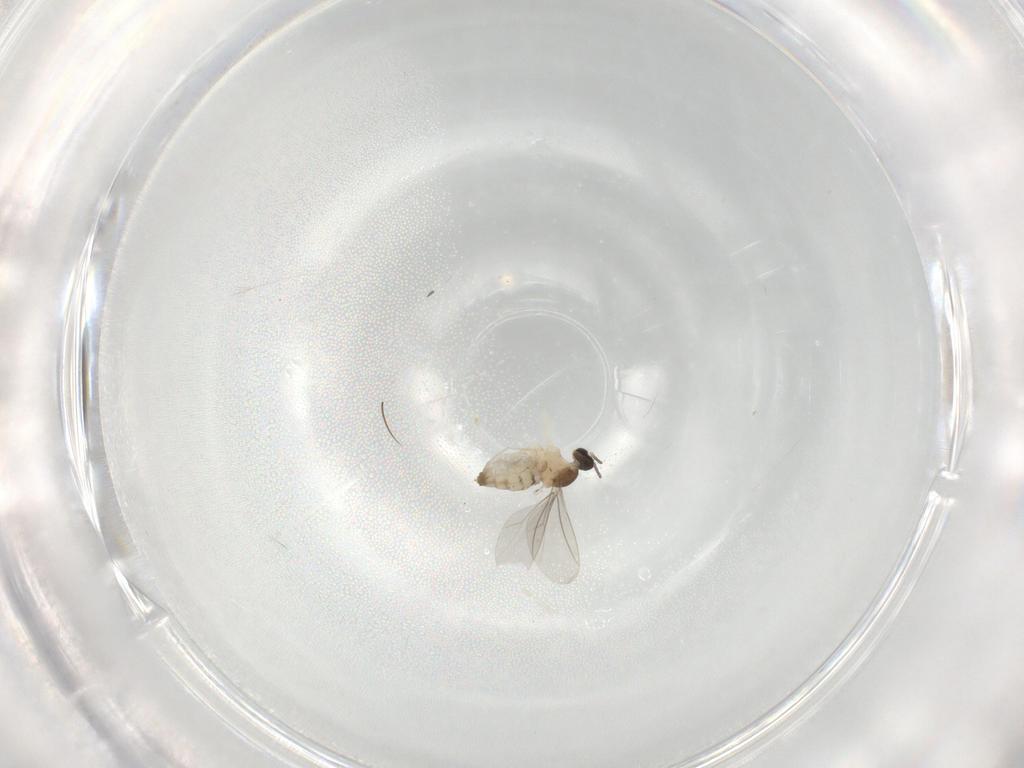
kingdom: Animalia
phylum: Arthropoda
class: Insecta
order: Diptera
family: Cecidomyiidae
